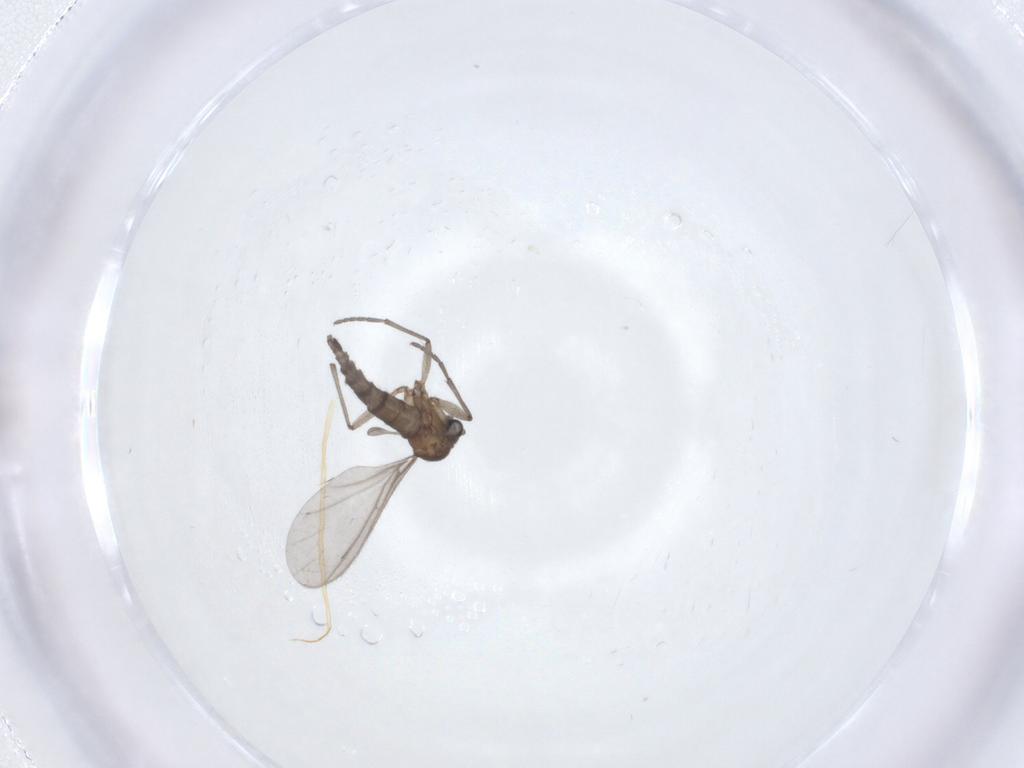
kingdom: Animalia
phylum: Arthropoda
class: Insecta
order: Diptera
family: Sciaridae
